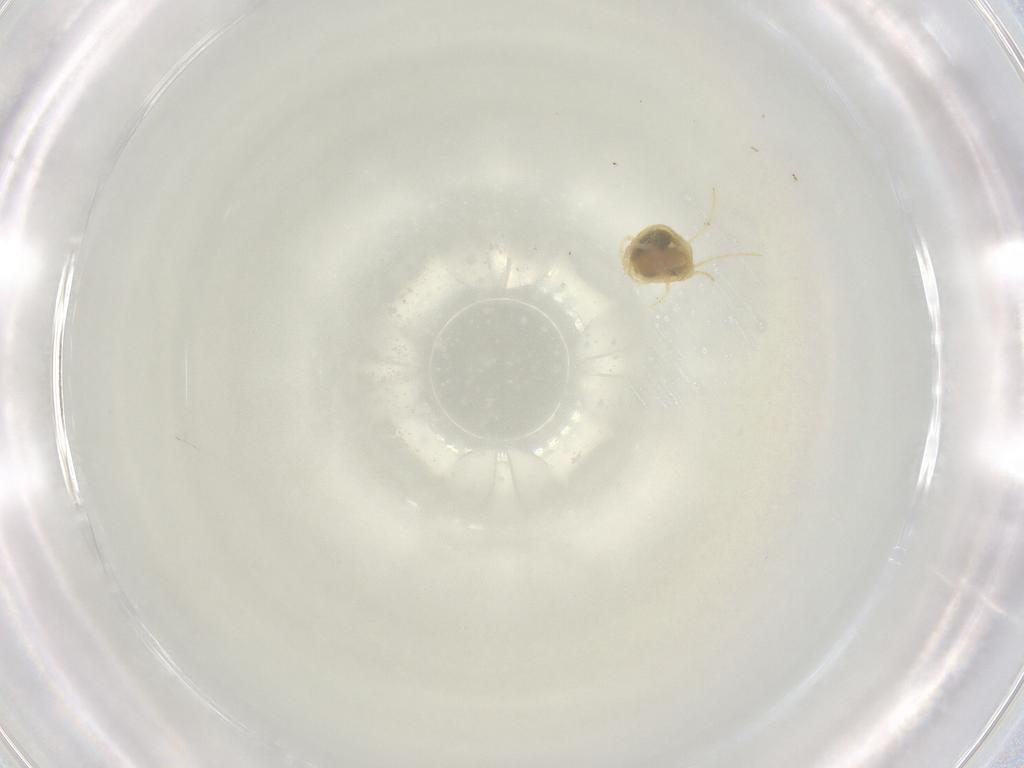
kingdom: Animalia
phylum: Arthropoda
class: Arachnida
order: Trombidiformes
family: Tetranychidae
